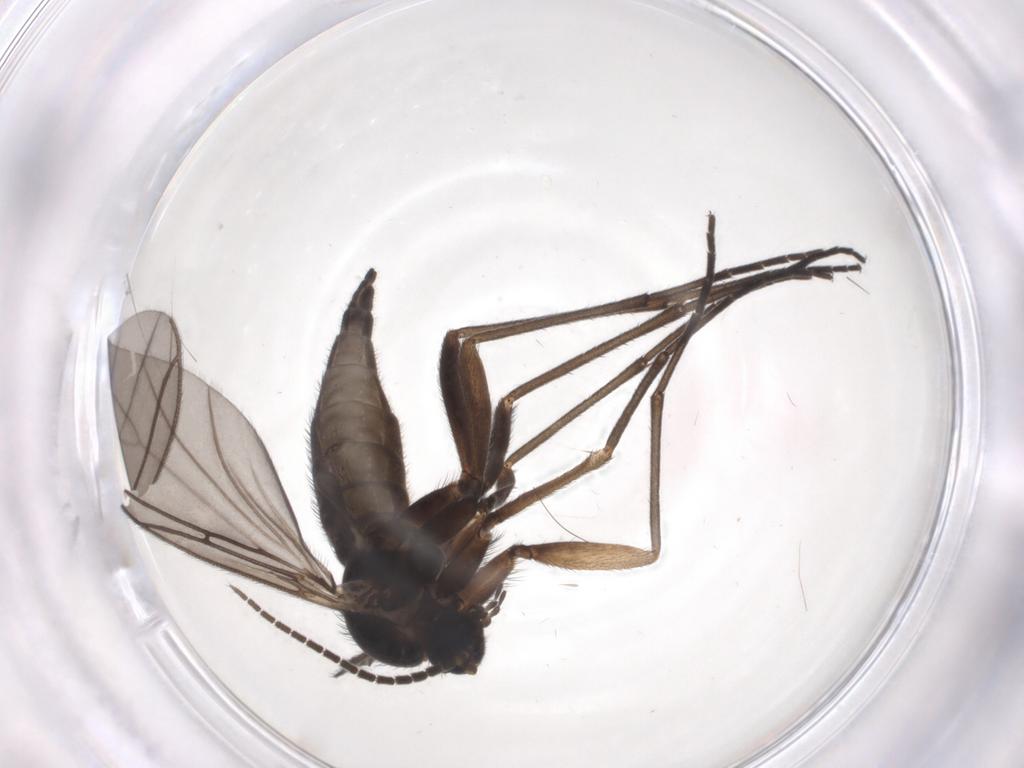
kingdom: Animalia
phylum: Arthropoda
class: Insecta
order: Diptera
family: Sciaridae
